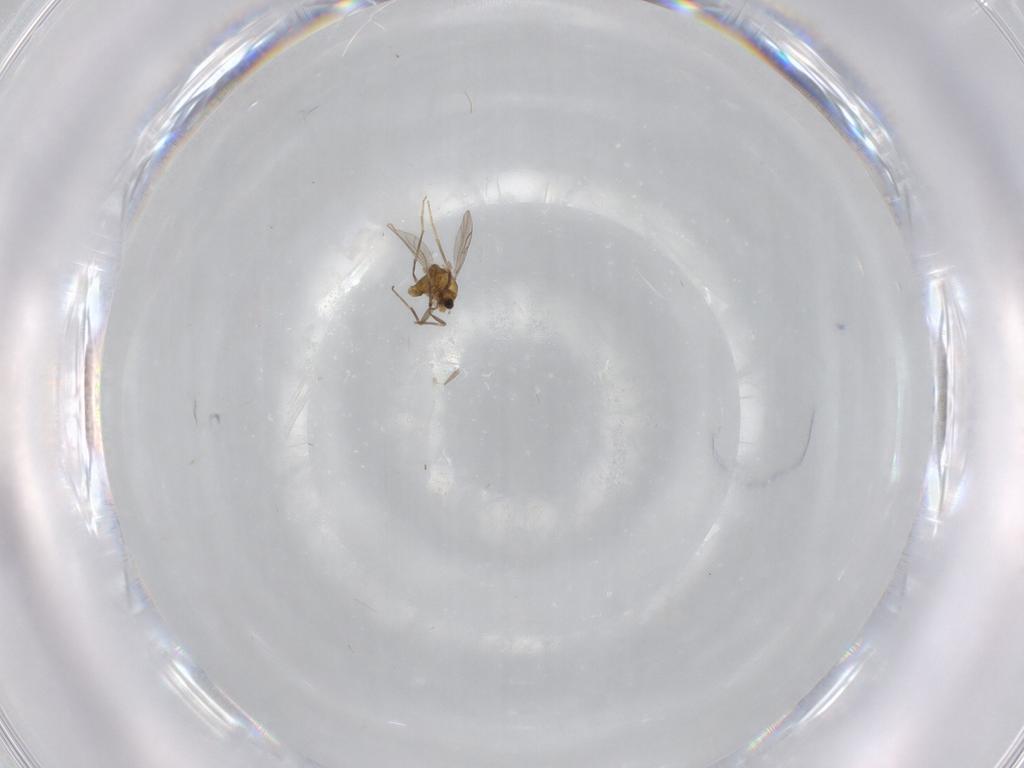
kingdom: Animalia
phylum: Arthropoda
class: Insecta
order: Diptera
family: Chironomidae
